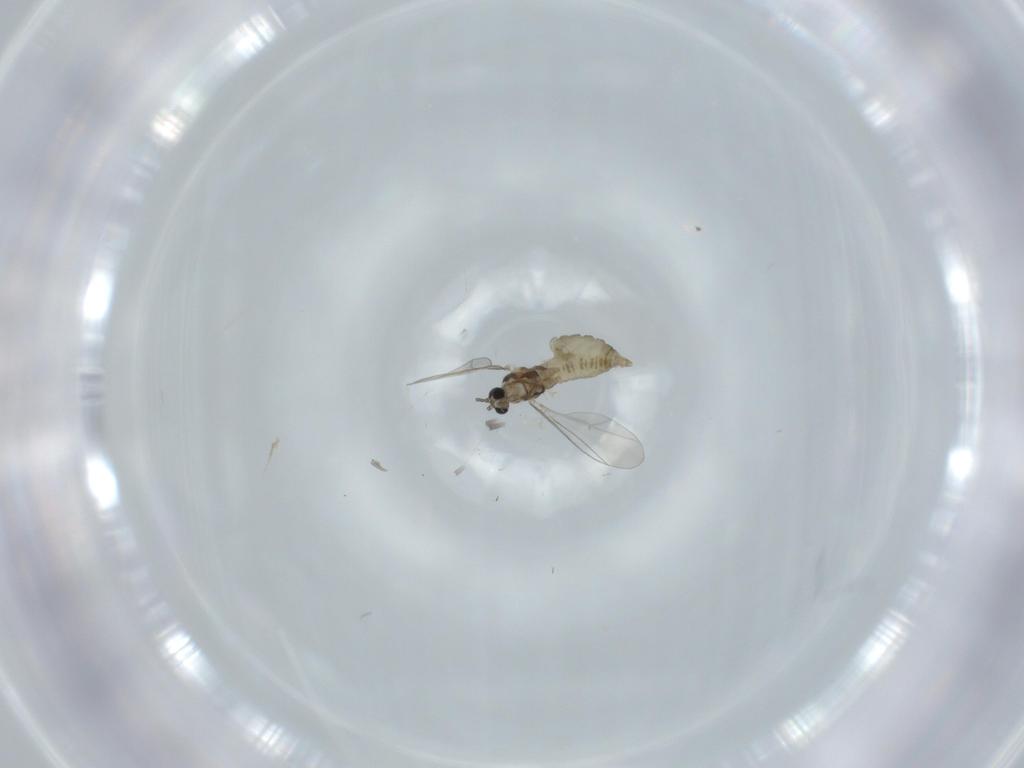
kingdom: Animalia
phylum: Arthropoda
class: Insecta
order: Diptera
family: Cecidomyiidae
